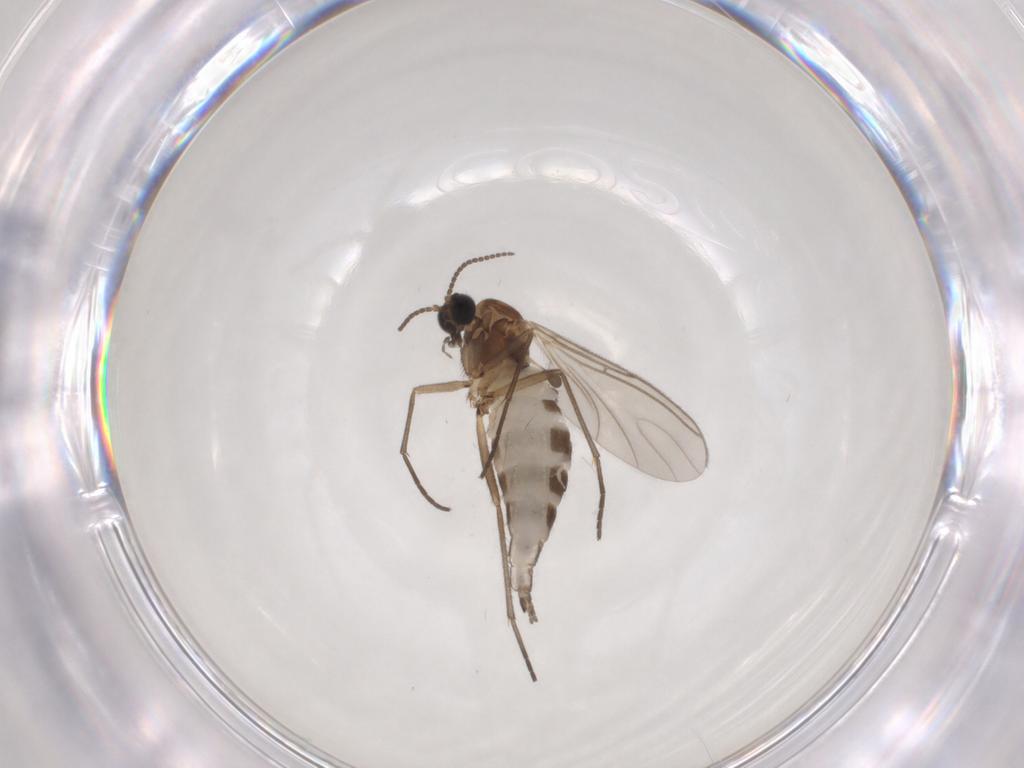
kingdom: Animalia
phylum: Arthropoda
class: Insecta
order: Diptera
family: Sciaridae
